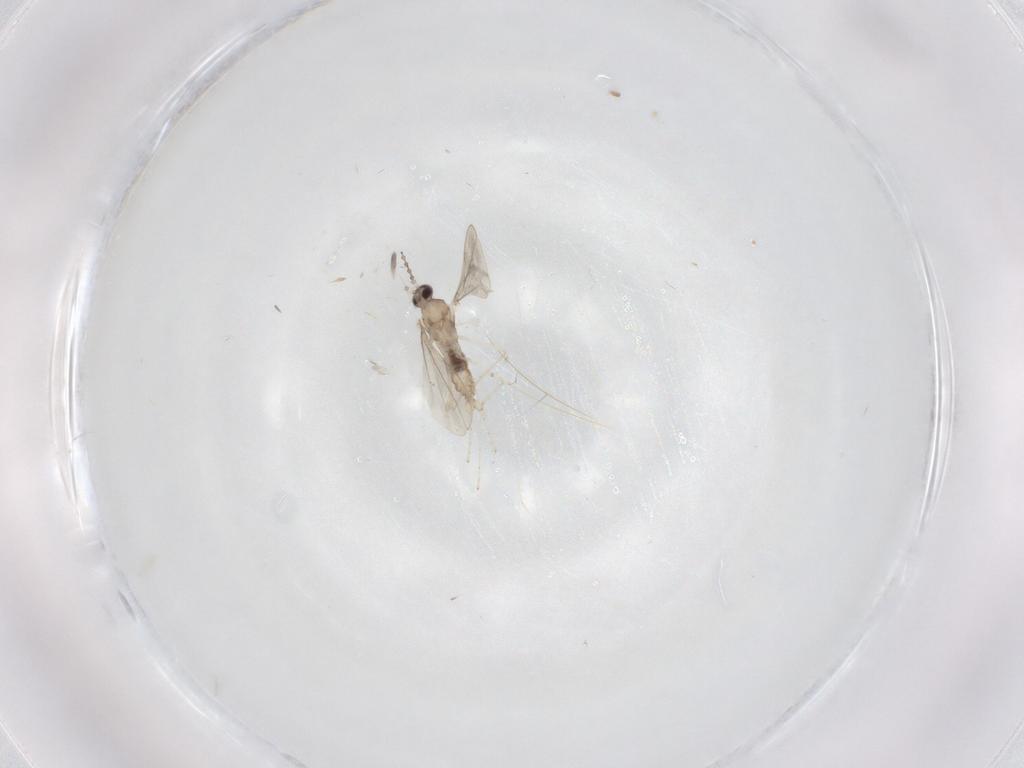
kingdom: Animalia
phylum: Arthropoda
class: Insecta
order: Diptera
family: Cecidomyiidae
